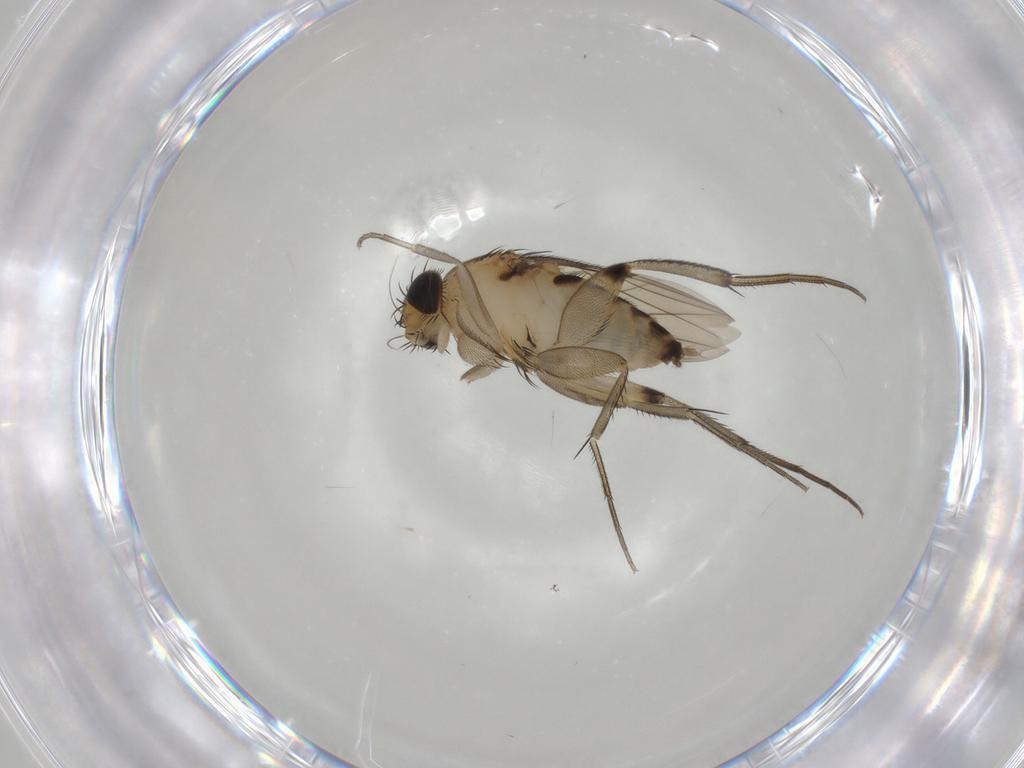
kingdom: Animalia
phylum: Arthropoda
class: Insecta
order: Diptera
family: Phoridae
